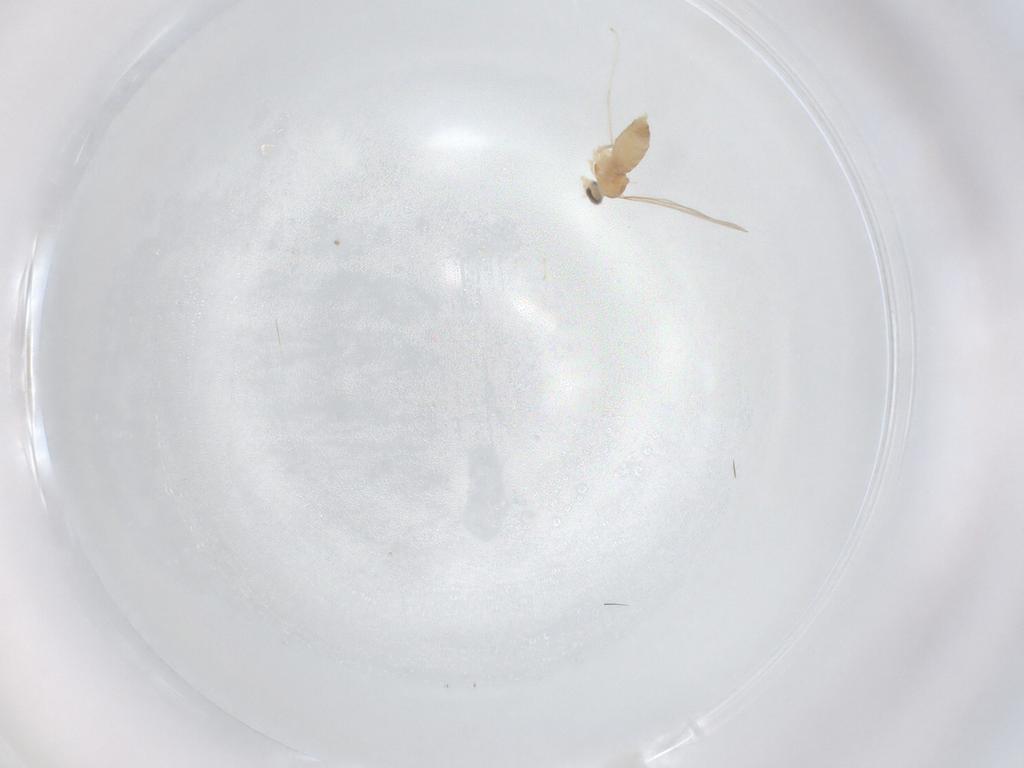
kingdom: Animalia
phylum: Arthropoda
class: Insecta
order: Diptera
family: Cecidomyiidae
